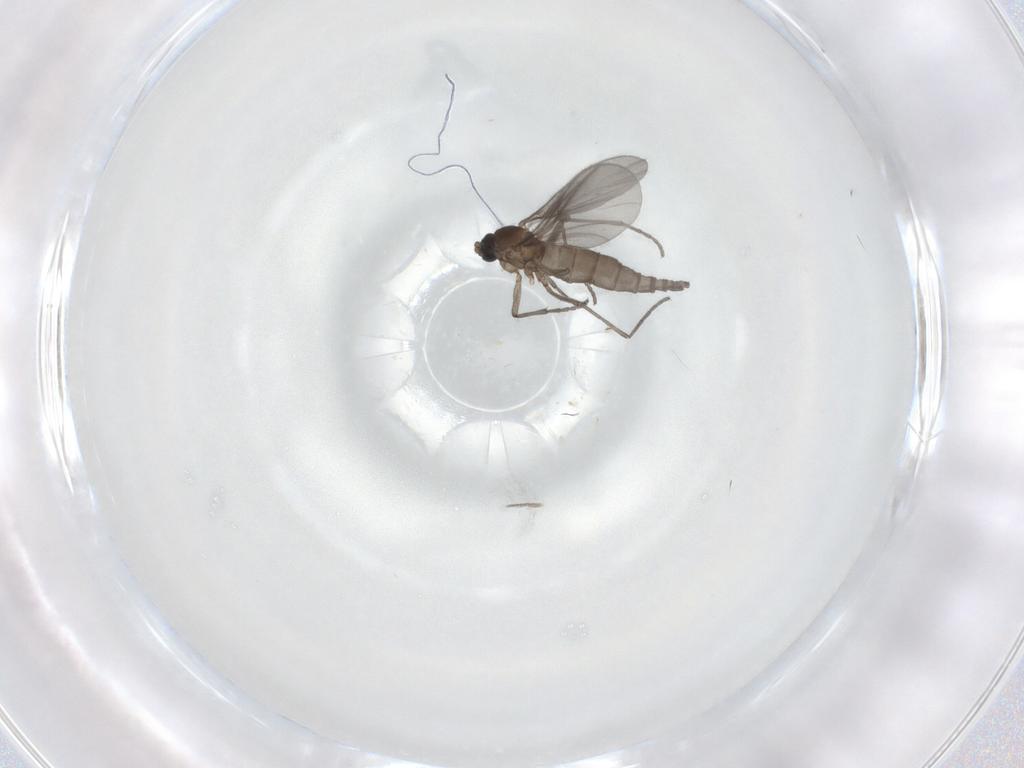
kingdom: Animalia
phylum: Arthropoda
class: Insecta
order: Diptera
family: Sciaridae
